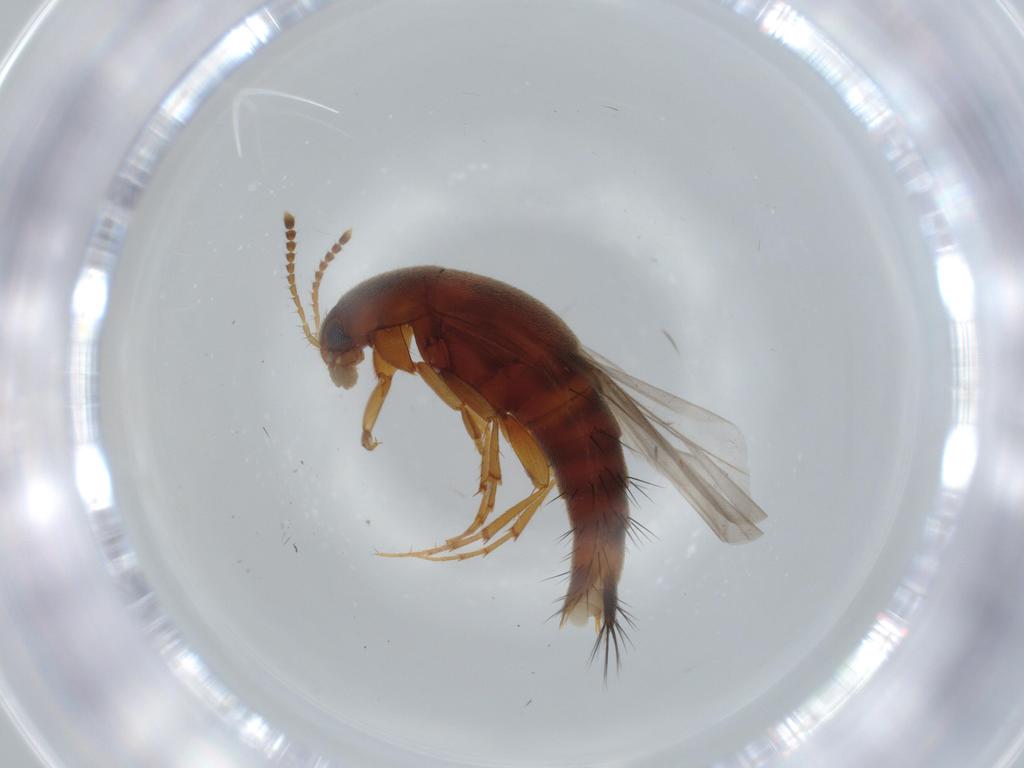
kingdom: Animalia
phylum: Arthropoda
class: Insecta
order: Coleoptera
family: Staphylinidae
